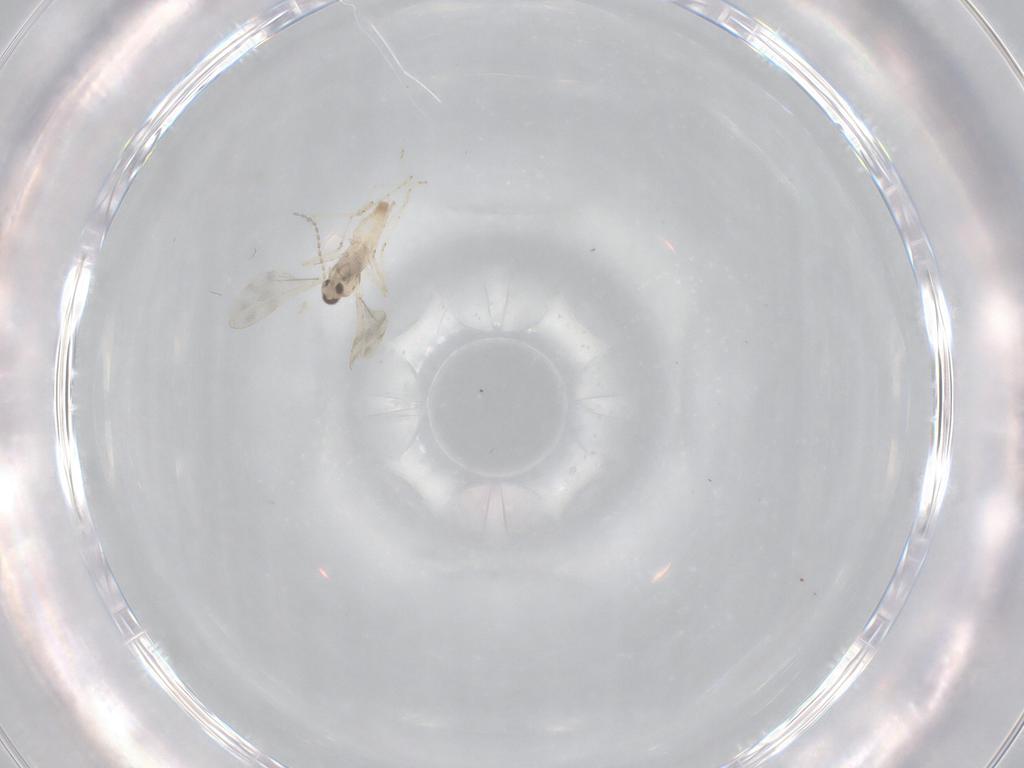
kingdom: Animalia
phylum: Arthropoda
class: Insecta
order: Diptera
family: Cecidomyiidae
